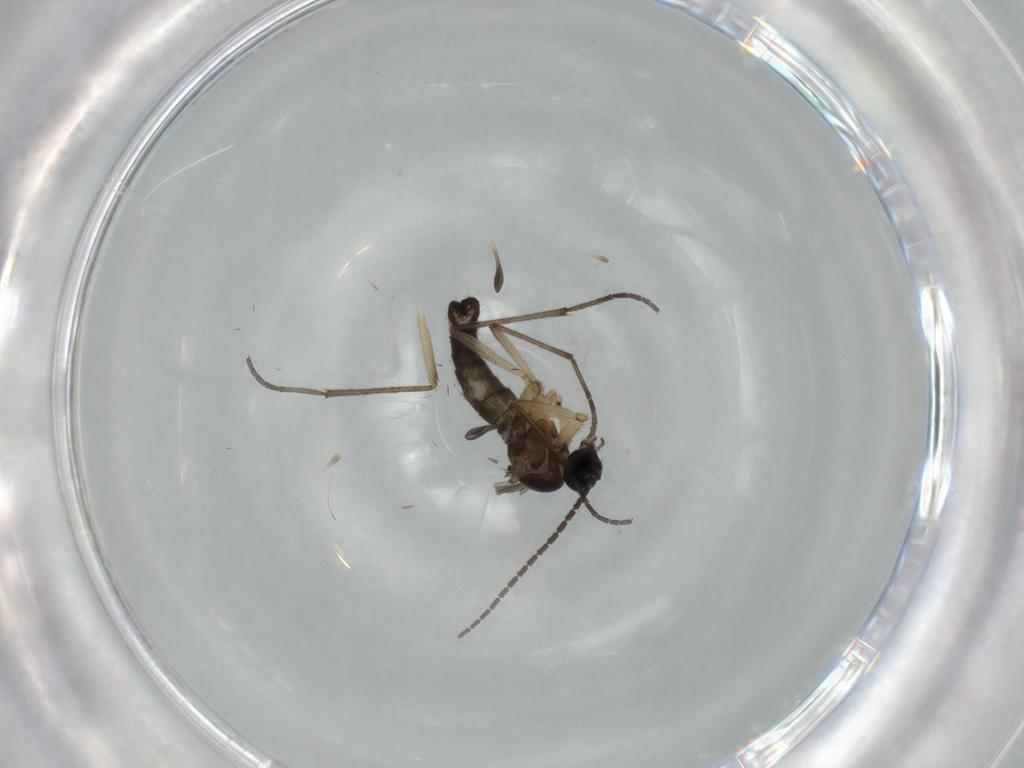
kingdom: Animalia
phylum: Arthropoda
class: Insecta
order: Diptera
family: Sciaridae
